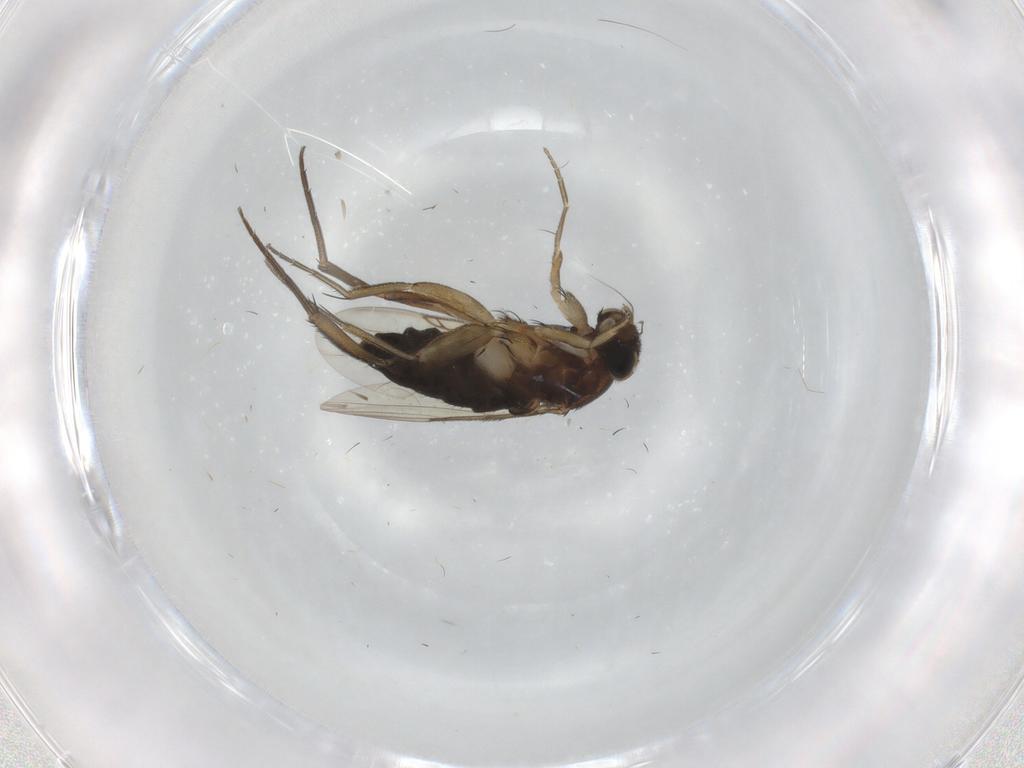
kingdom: Animalia
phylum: Arthropoda
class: Insecta
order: Diptera
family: Phoridae
